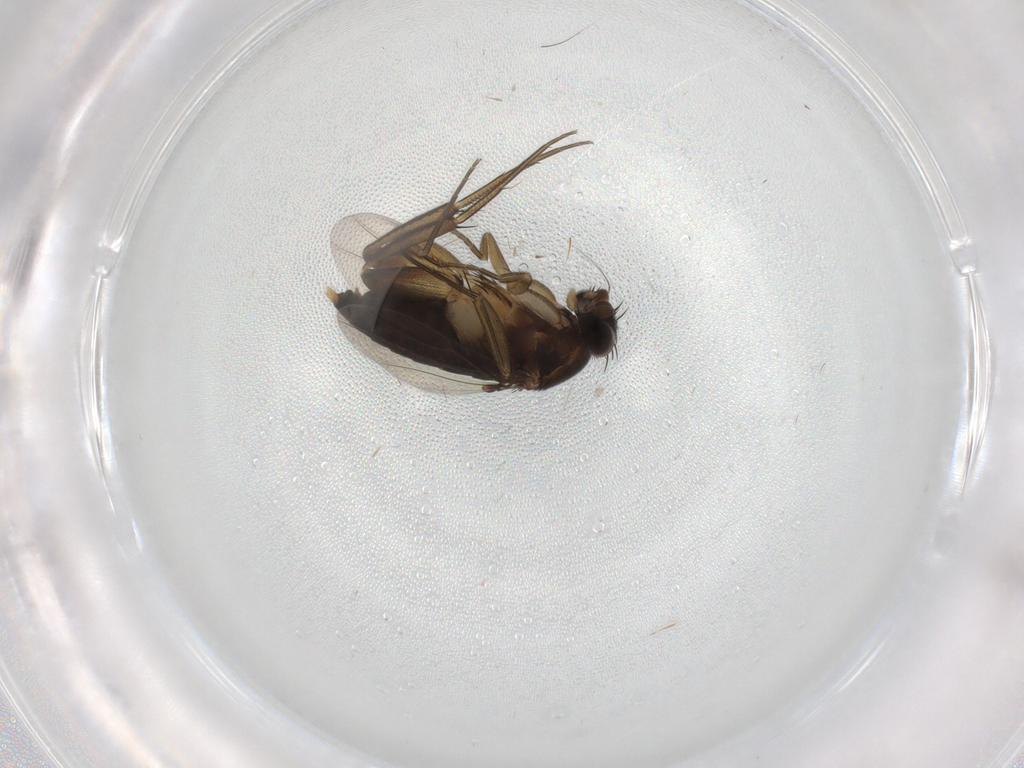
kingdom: Animalia
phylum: Arthropoda
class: Insecta
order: Diptera
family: Phoridae
